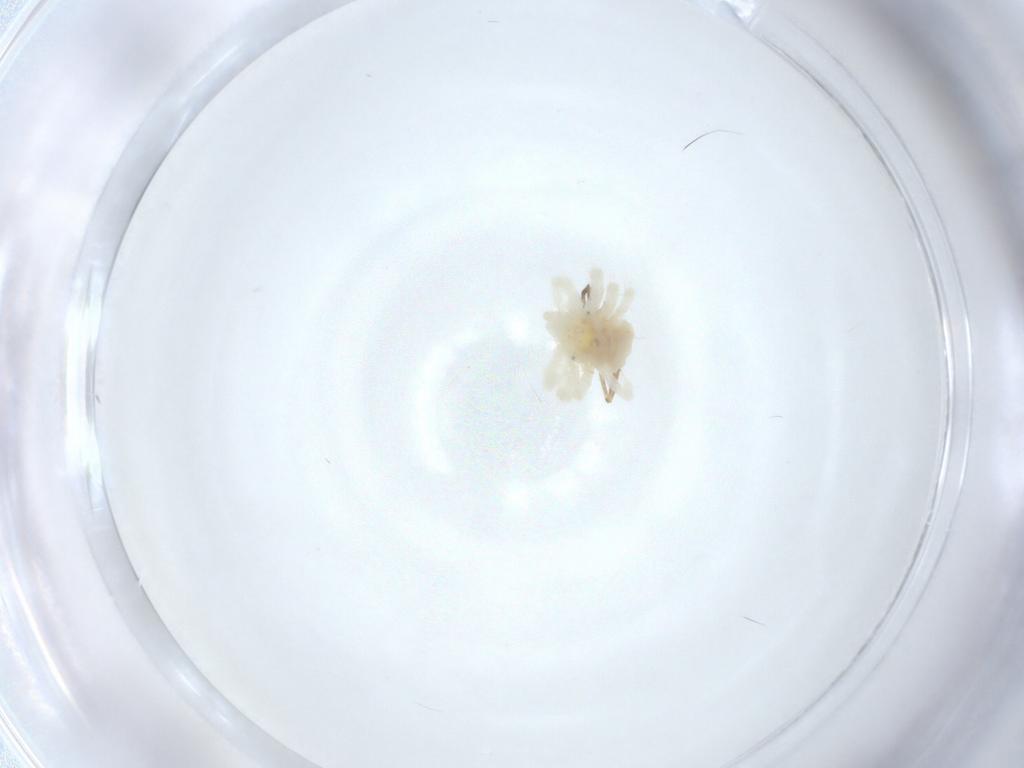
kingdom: Animalia
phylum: Arthropoda
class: Arachnida
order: Trombidiformes
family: Anystidae
